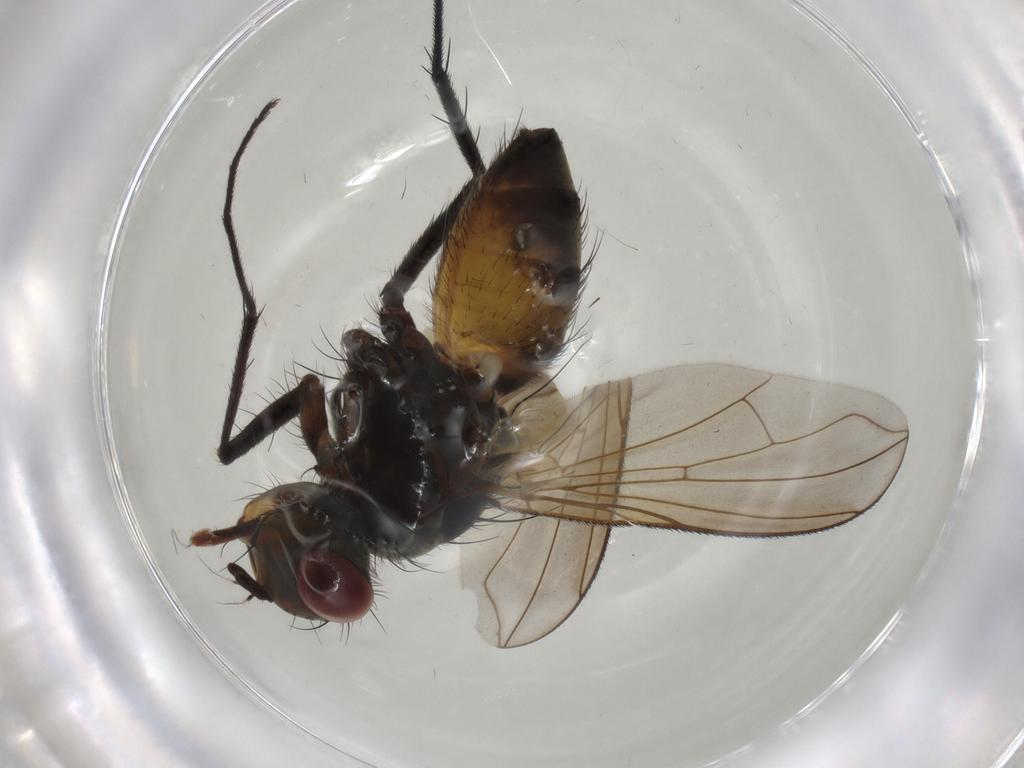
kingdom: Animalia
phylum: Arthropoda
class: Insecta
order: Diptera
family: Tachinidae
